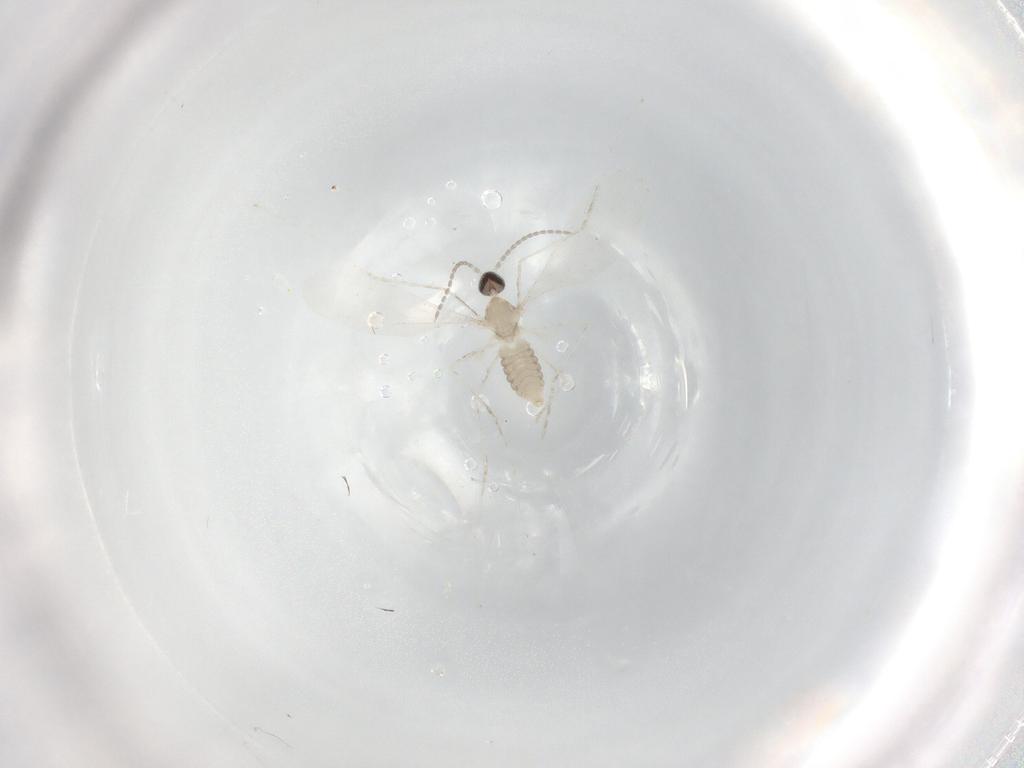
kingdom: Animalia
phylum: Arthropoda
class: Insecta
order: Diptera
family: Cecidomyiidae
